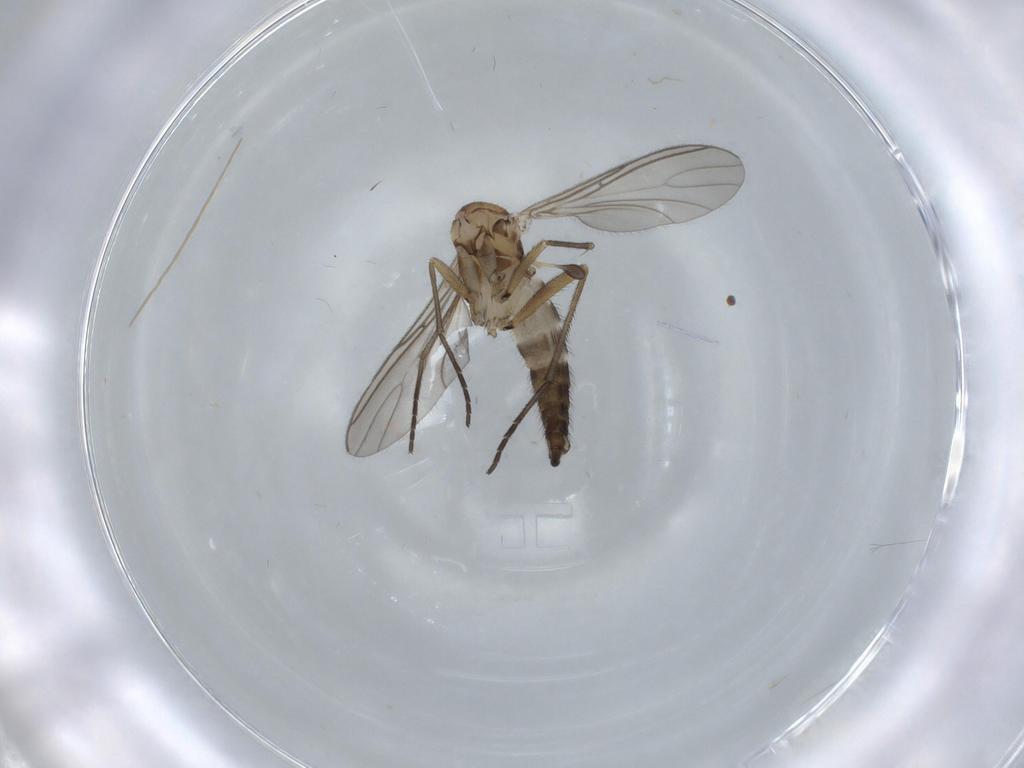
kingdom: Animalia
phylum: Arthropoda
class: Insecta
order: Diptera
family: Sciaridae
